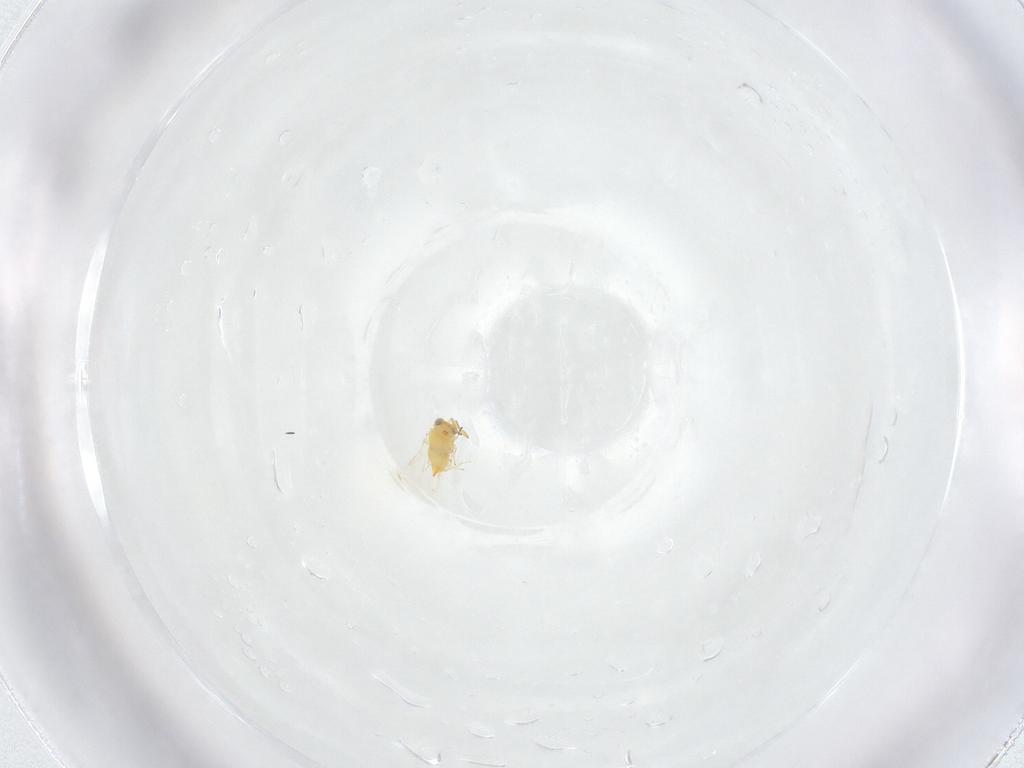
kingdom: Animalia
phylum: Arthropoda
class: Insecta
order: Hymenoptera
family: Aphelinidae
